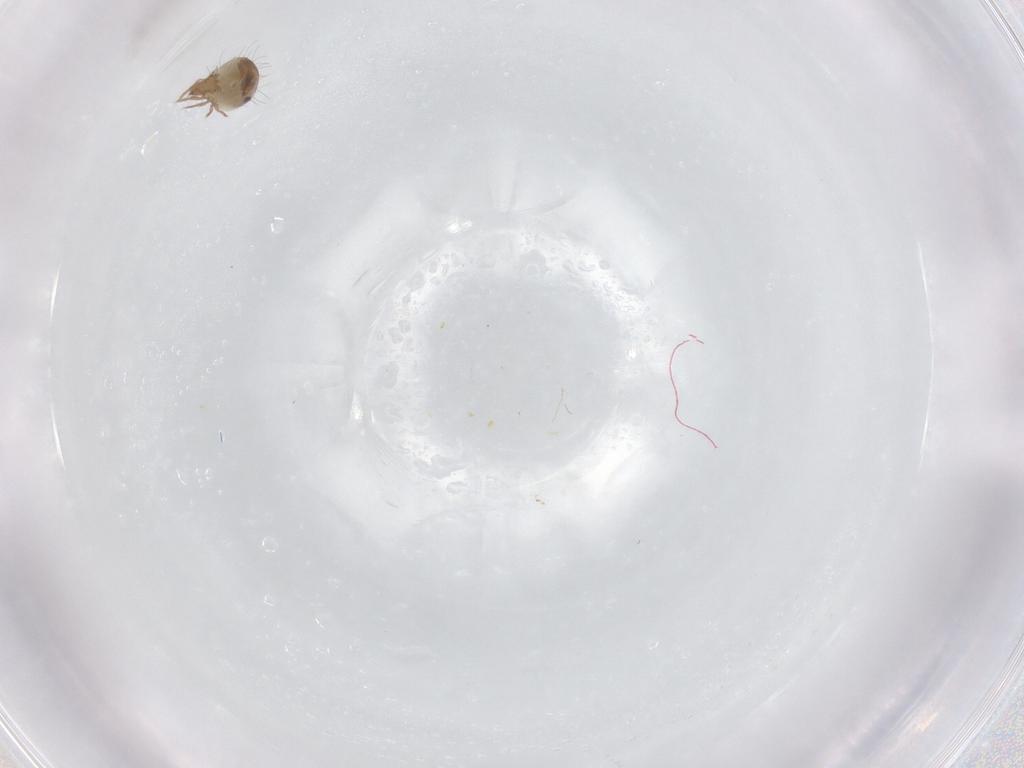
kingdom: Animalia
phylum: Arthropoda
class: Arachnida
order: Sarcoptiformes
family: Humerobatidae
